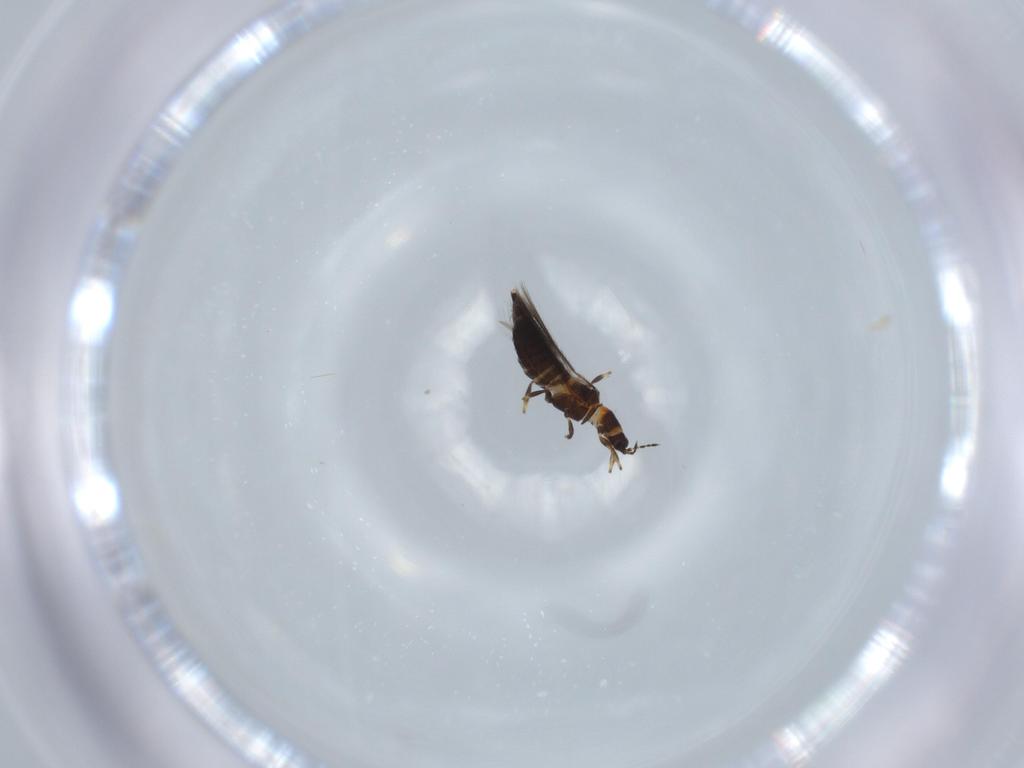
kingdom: Animalia
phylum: Arthropoda
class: Insecta
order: Thysanoptera
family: Thripidae
